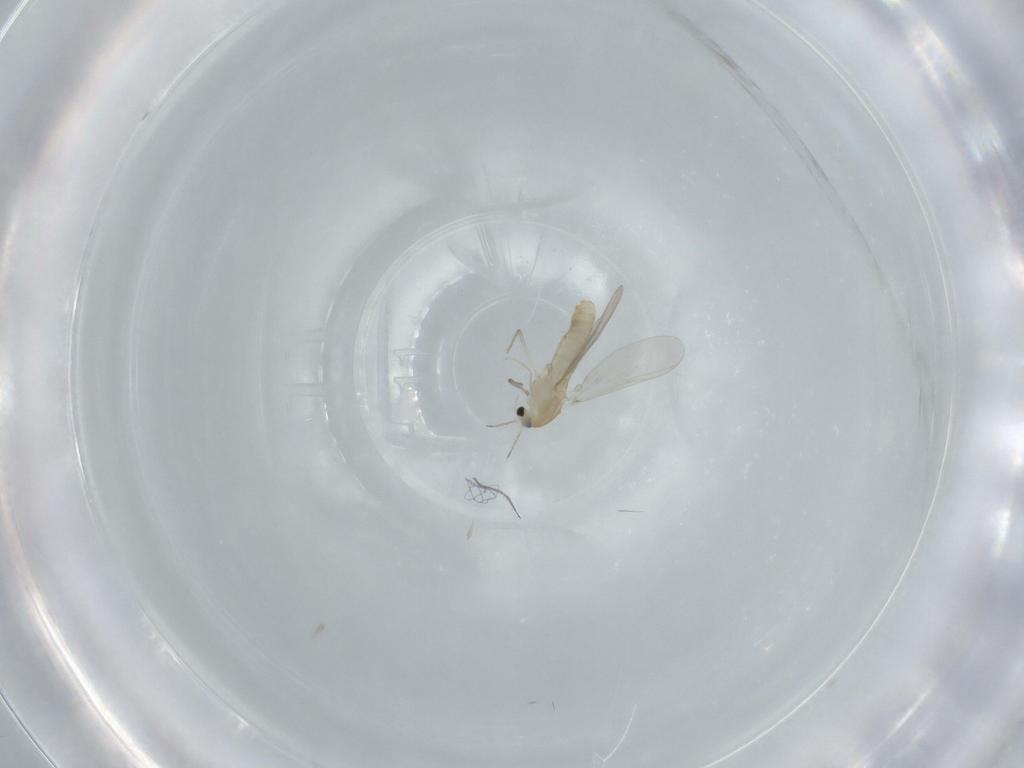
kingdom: Animalia
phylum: Arthropoda
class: Insecta
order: Diptera
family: Chironomidae
